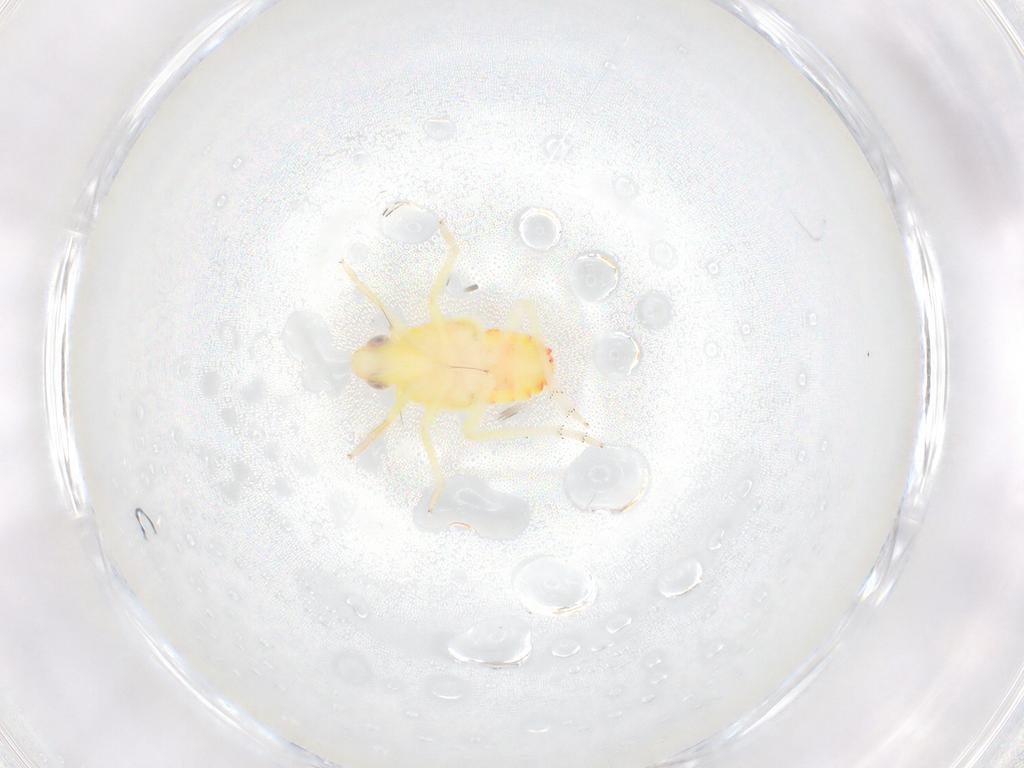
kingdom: Animalia
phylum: Arthropoda
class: Insecta
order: Hemiptera
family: Tropiduchidae
